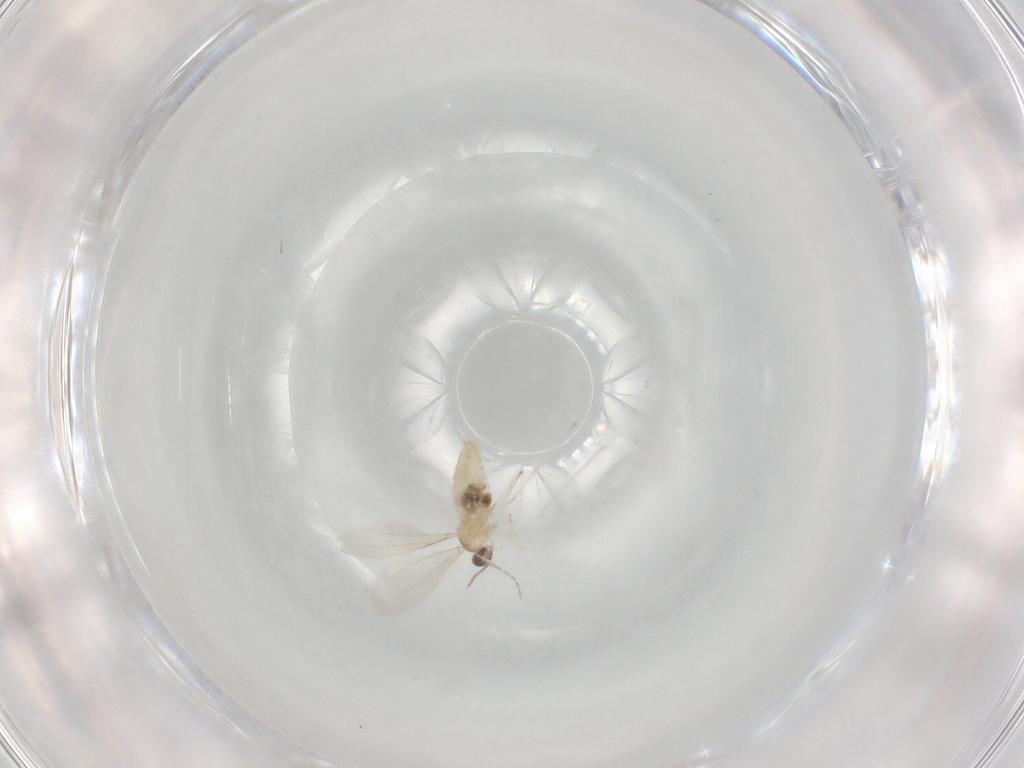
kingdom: Animalia
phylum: Arthropoda
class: Insecta
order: Diptera
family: Cecidomyiidae
